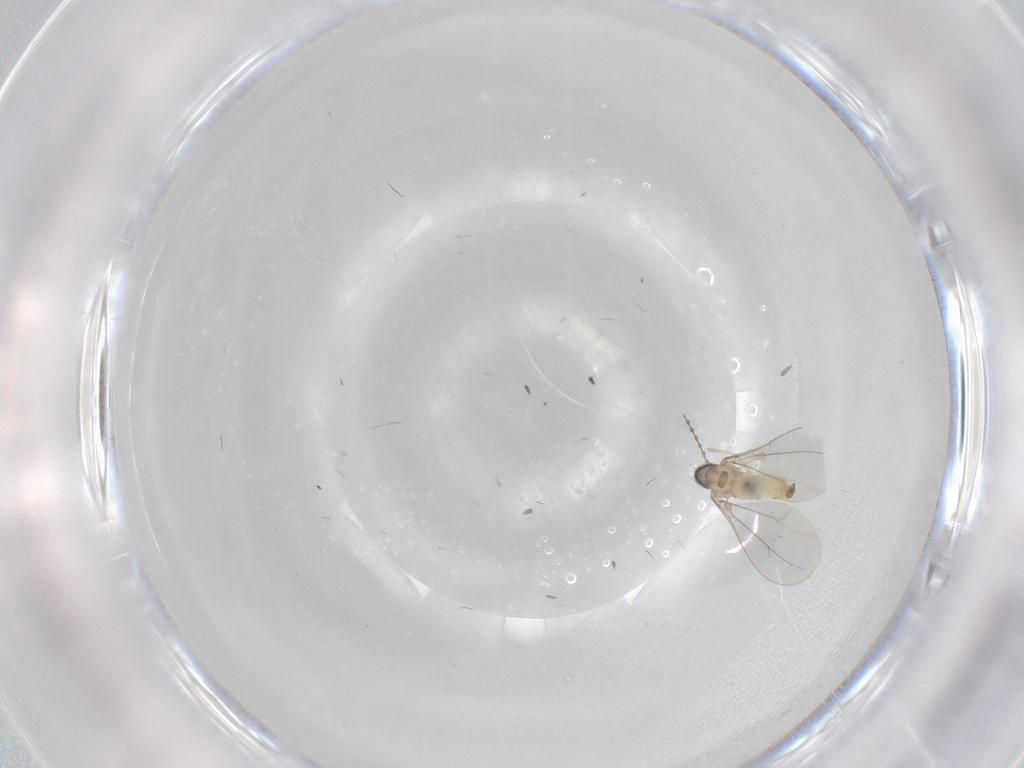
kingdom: Animalia
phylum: Arthropoda
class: Insecta
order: Diptera
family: Cecidomyiidae
